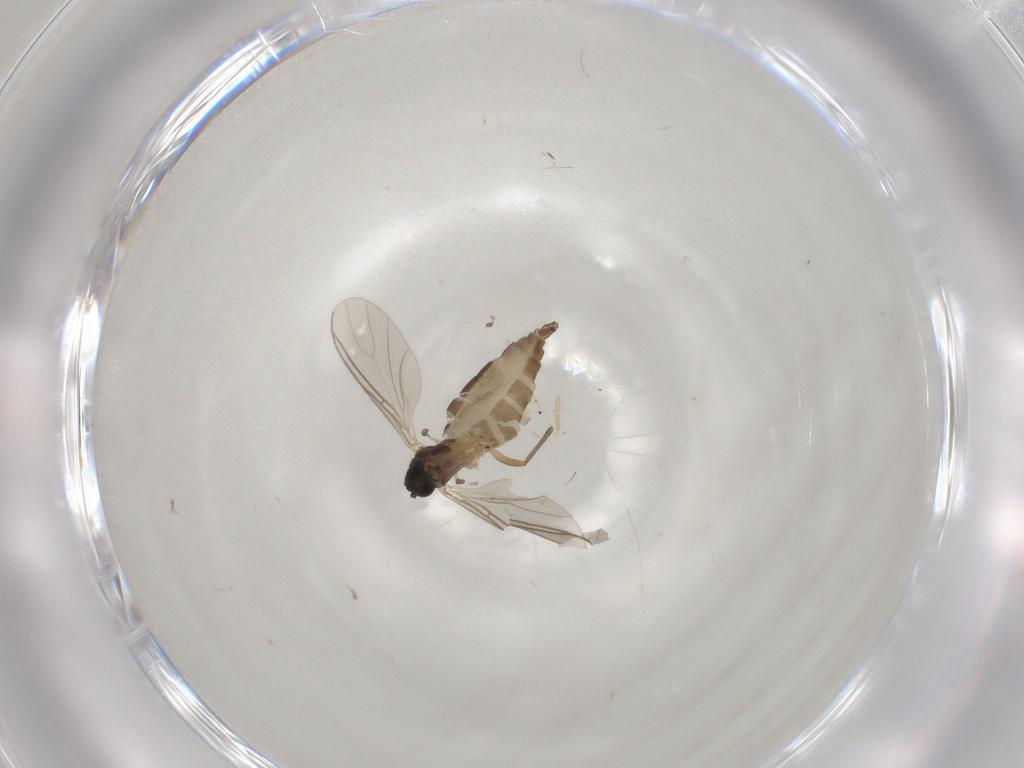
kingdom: Animalia
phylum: Arthropoda
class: Insecta
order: Diptera
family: Sciaridae
